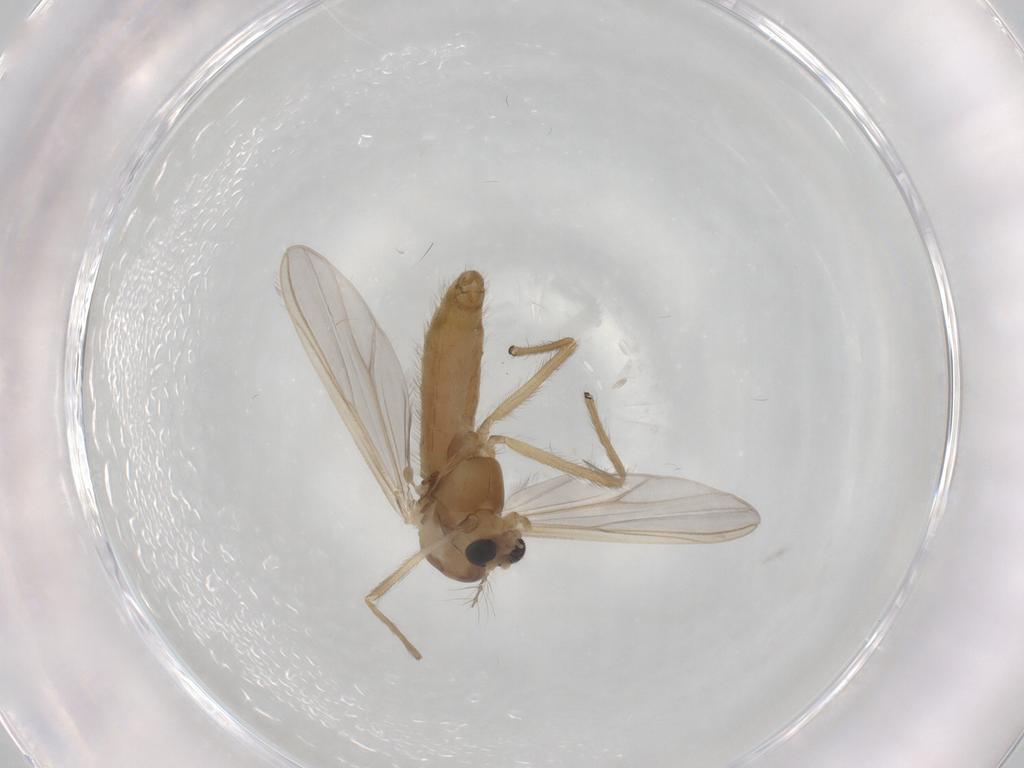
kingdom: Animalia
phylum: Arthropoda
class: Insecta
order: Diptera
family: Chironomidae
